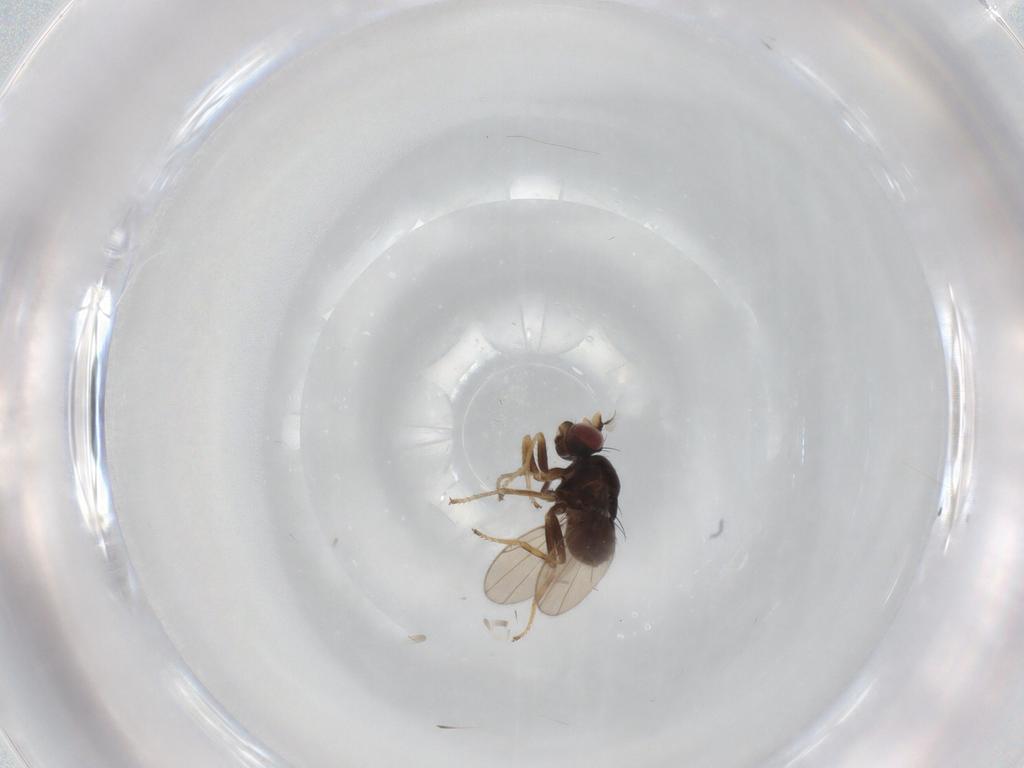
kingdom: Animalia
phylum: Arthropoda
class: Insecta
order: Diptera
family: Ephydridae
